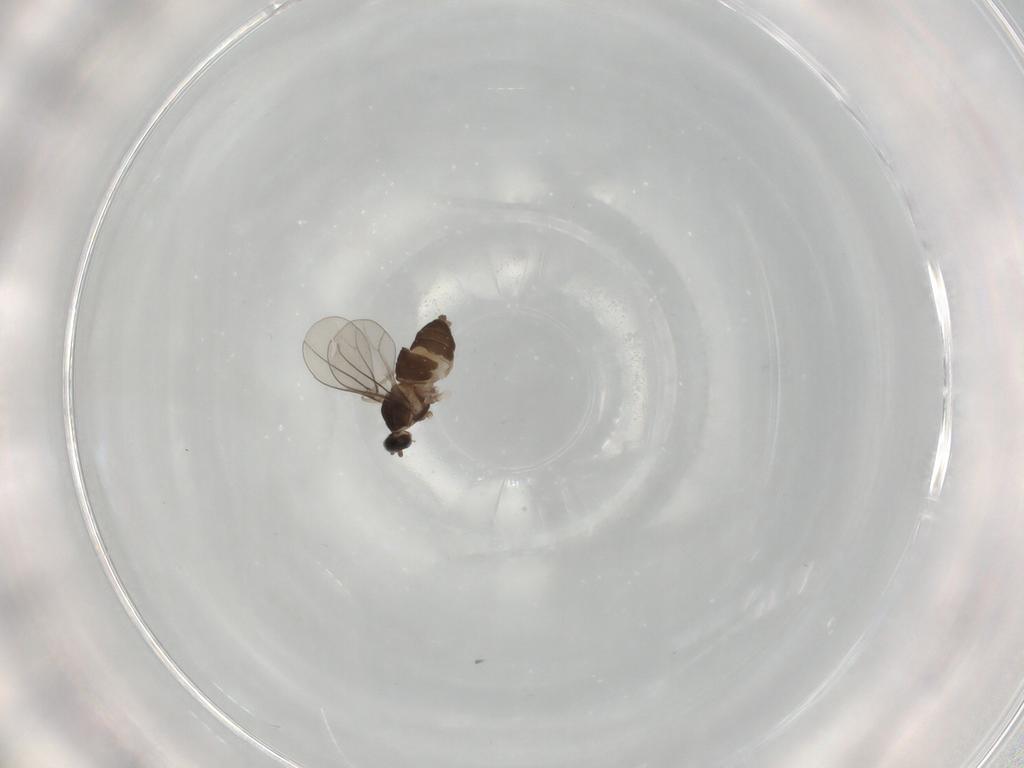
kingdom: Animalia
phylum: Arthropoda
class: Insecta
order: Diptera
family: Cecidomyiidae
